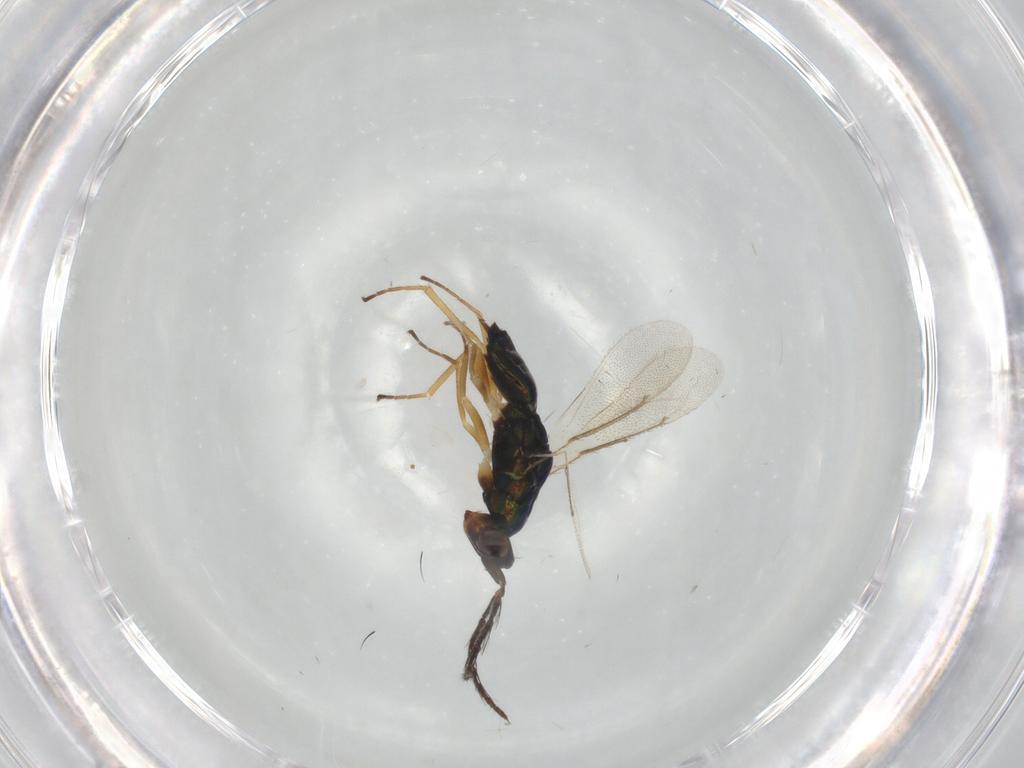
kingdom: Animalia
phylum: Arthropoda
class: Insecta
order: Hymenoptera
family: Eulophidae
